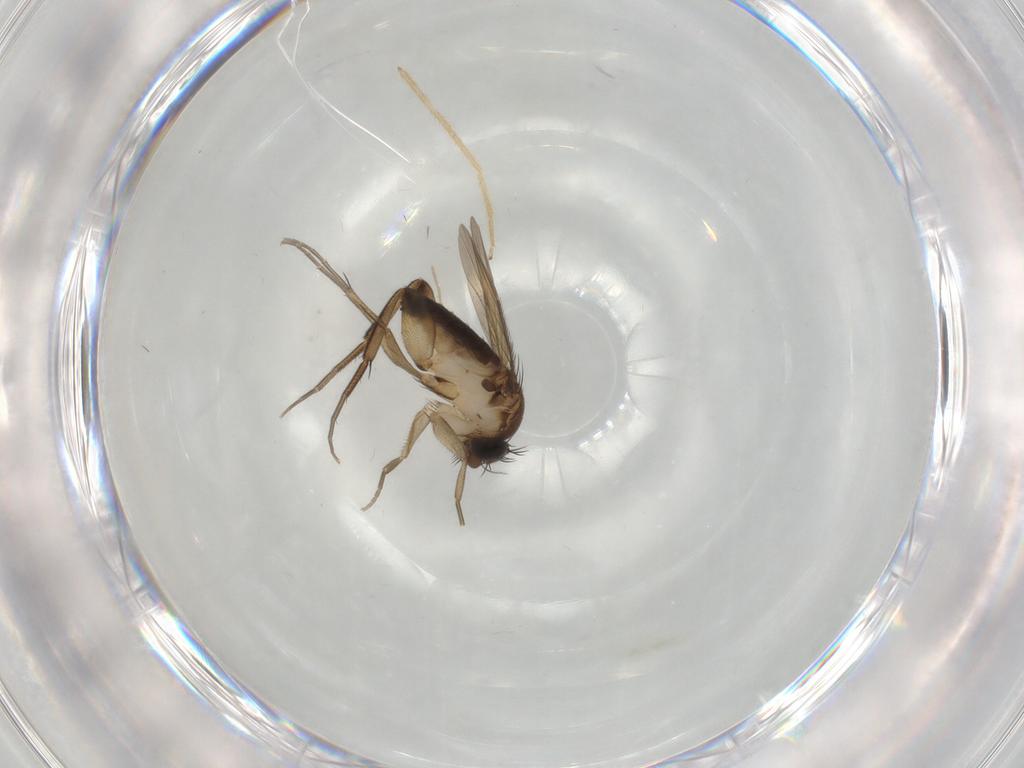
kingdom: Animalia
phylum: Arthropoda
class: Insecta
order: Diptera
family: Phoridae
